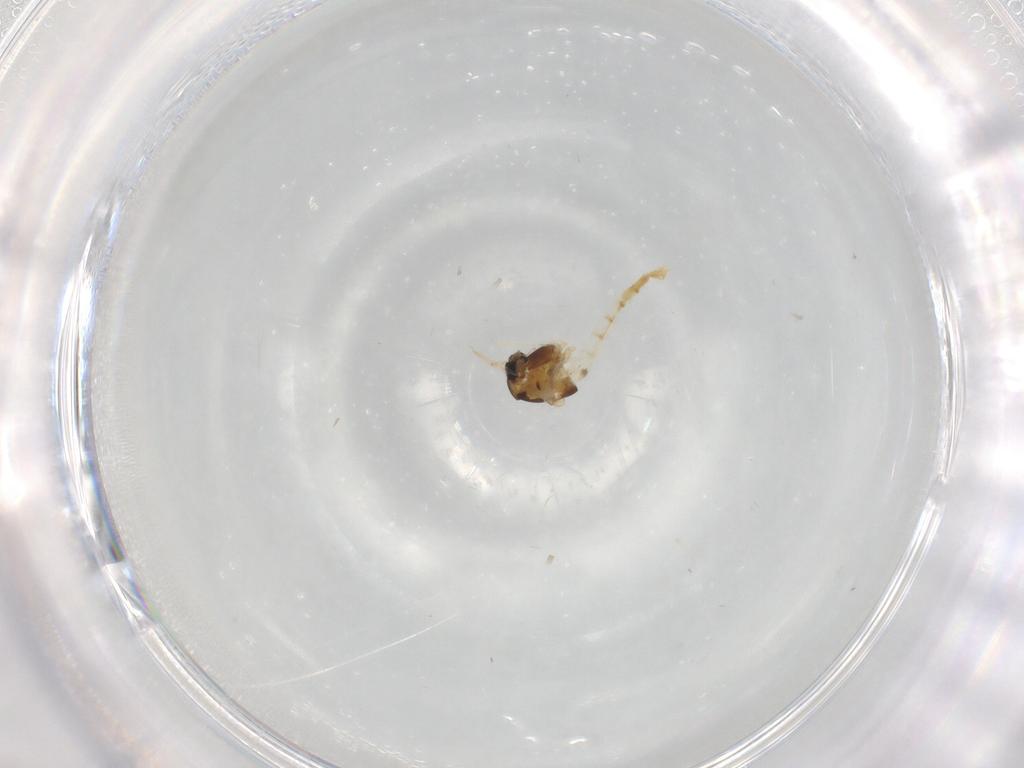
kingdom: Animalia
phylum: Arthropoda
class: Insecta
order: Diptera
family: Chironomidae
